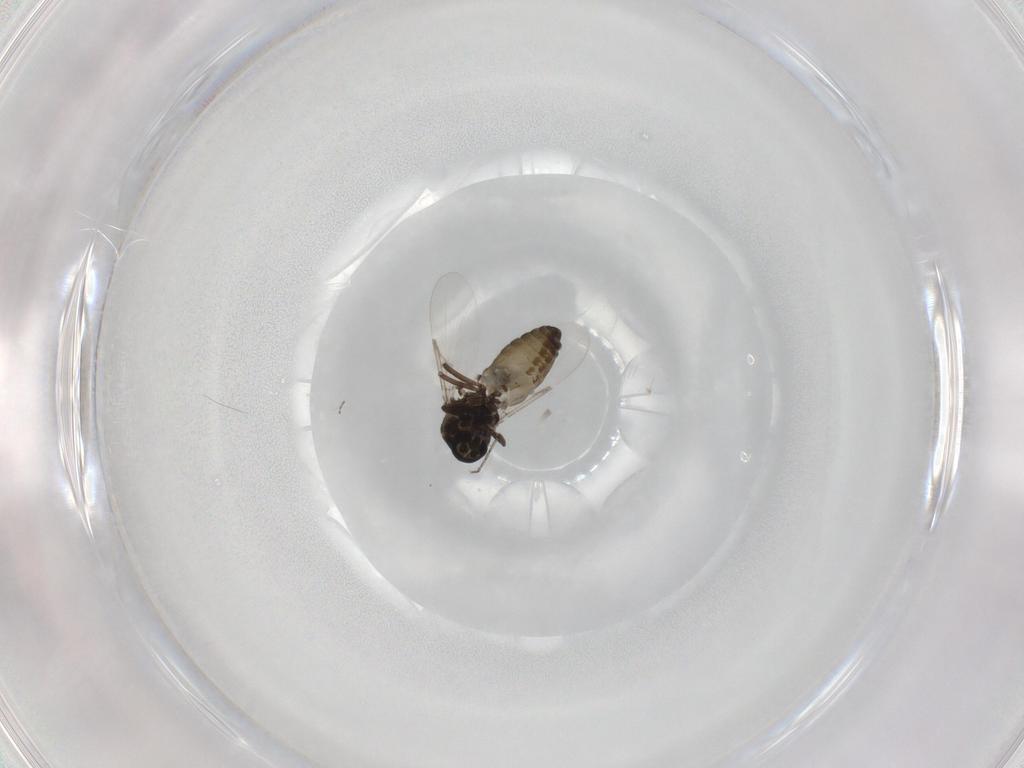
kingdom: Animalia
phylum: Arthropoda
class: Insecta
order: Diptera
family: Ceratopogonidae
